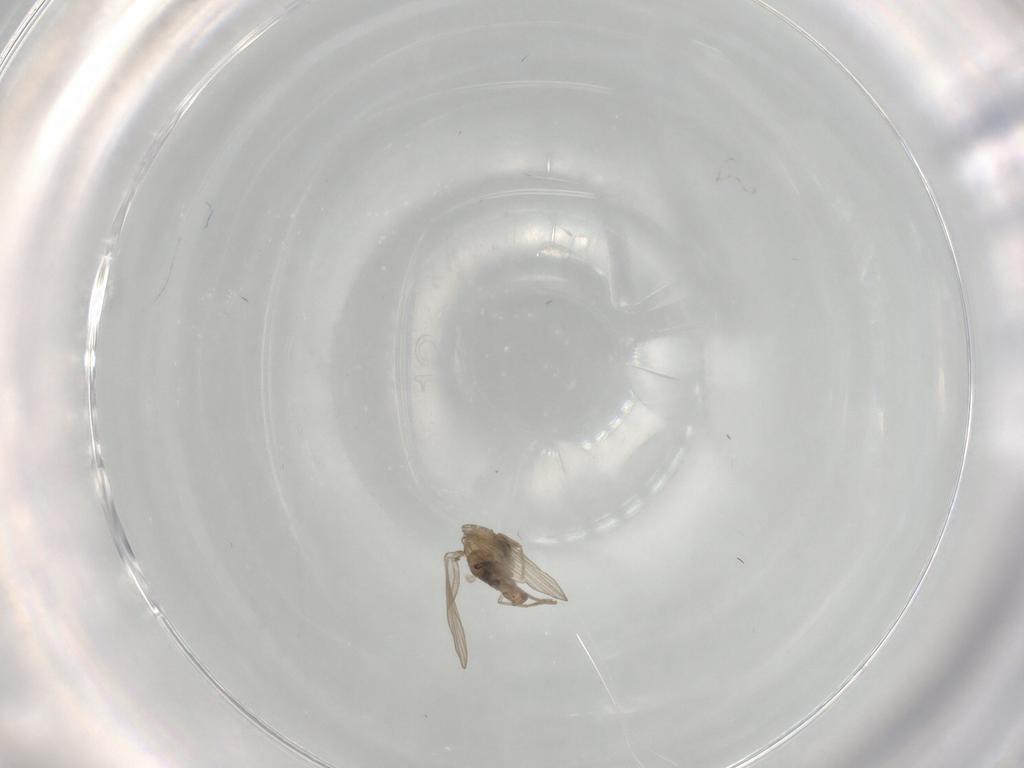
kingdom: Animalia
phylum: Arthropoda
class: Insecta
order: Diptera
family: Psychodidae
